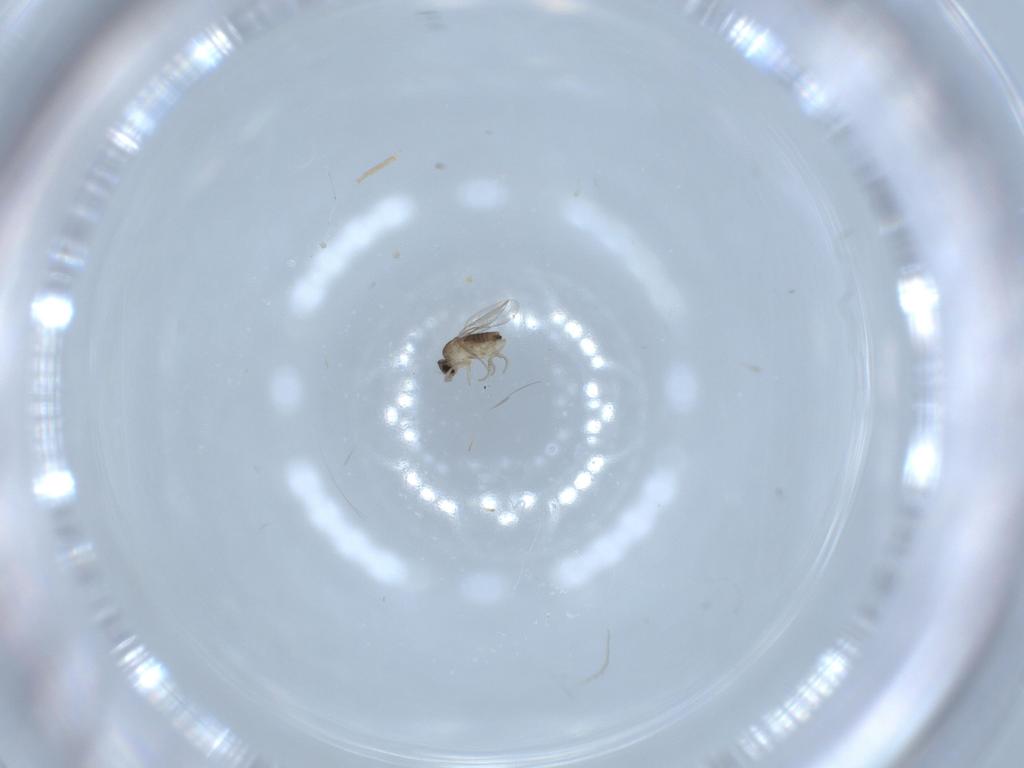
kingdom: Animalia
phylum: Arthropoda
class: Insecta
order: Diptera
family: Phoridae
